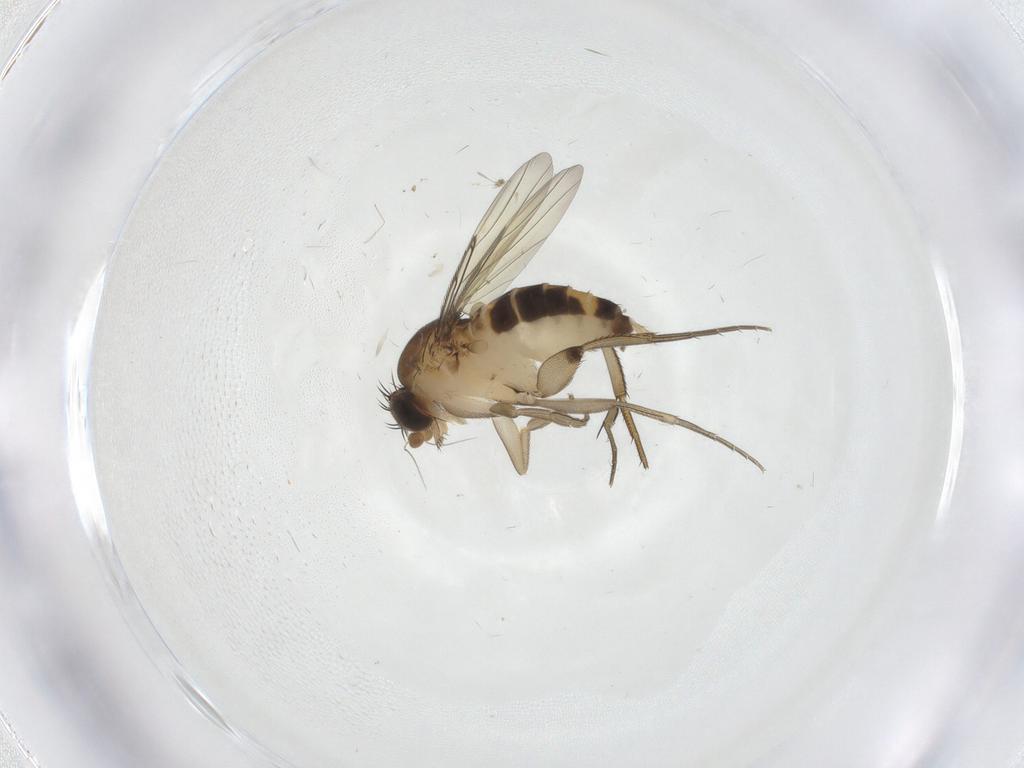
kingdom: Animalia
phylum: Arthropoda
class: Insecta
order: Diptera
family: Phoridae
